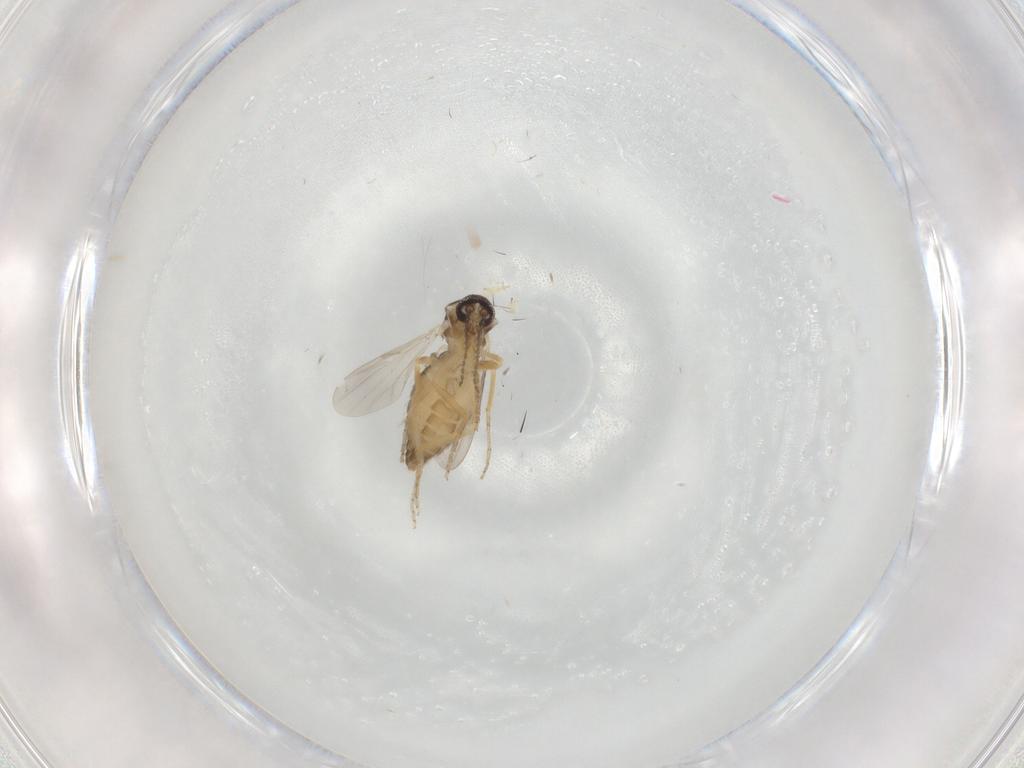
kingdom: Animalia
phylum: Arthropoda
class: Insecta
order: Diptera
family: Ceratopogonidae
